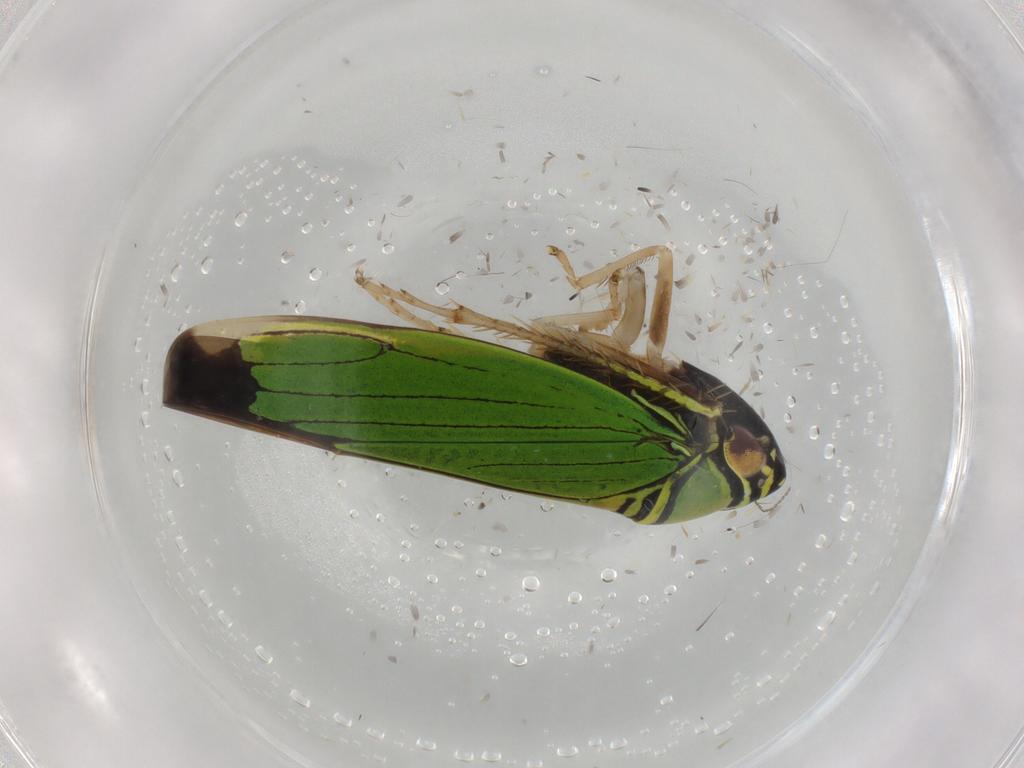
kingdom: Animalia
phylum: Arthropoda
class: Insecta
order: Hemiptera
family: Cicadellidae
